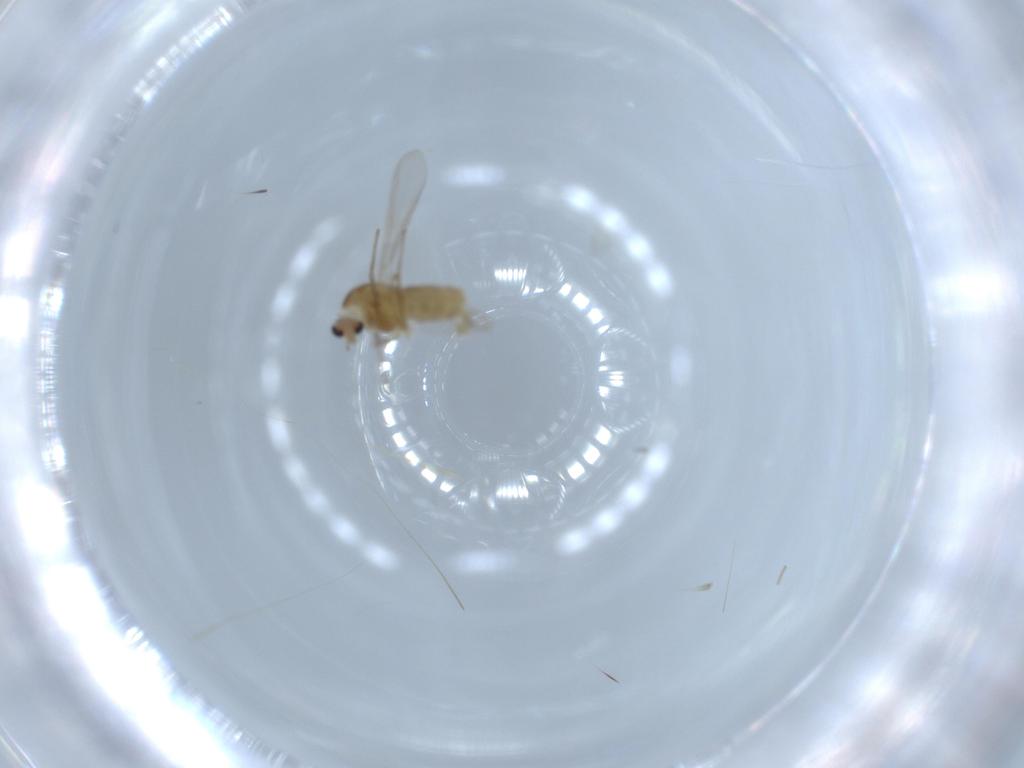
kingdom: Animalia
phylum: Arthropoda
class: Insecta
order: Diptera
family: Chironomidae
